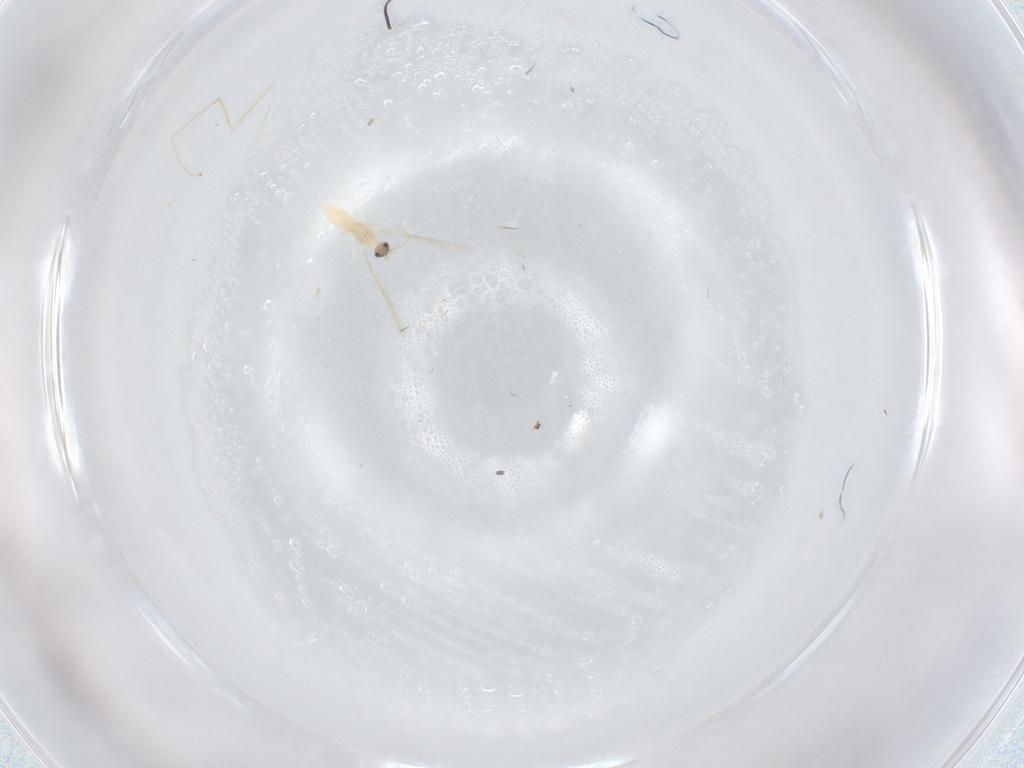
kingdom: Animalia
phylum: Arthropoda
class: Insecta
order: Diptera
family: Cecidomyiidae
